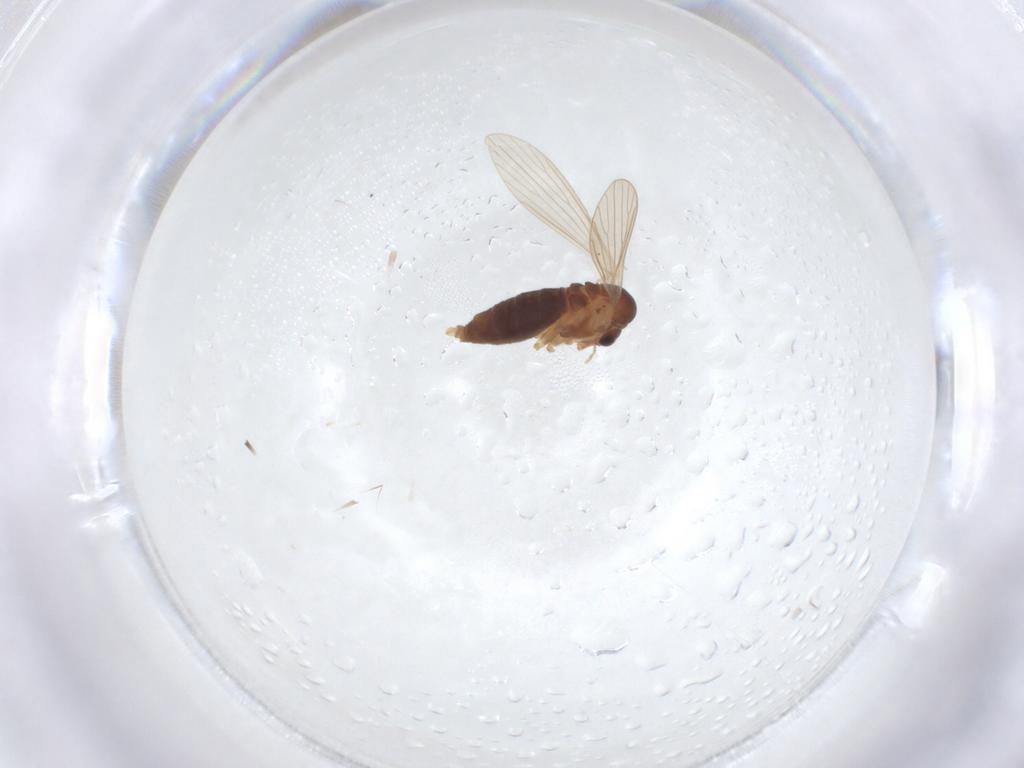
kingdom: Animalia
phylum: Arthropoda
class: Insecta
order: Diptera
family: Psychodidae
